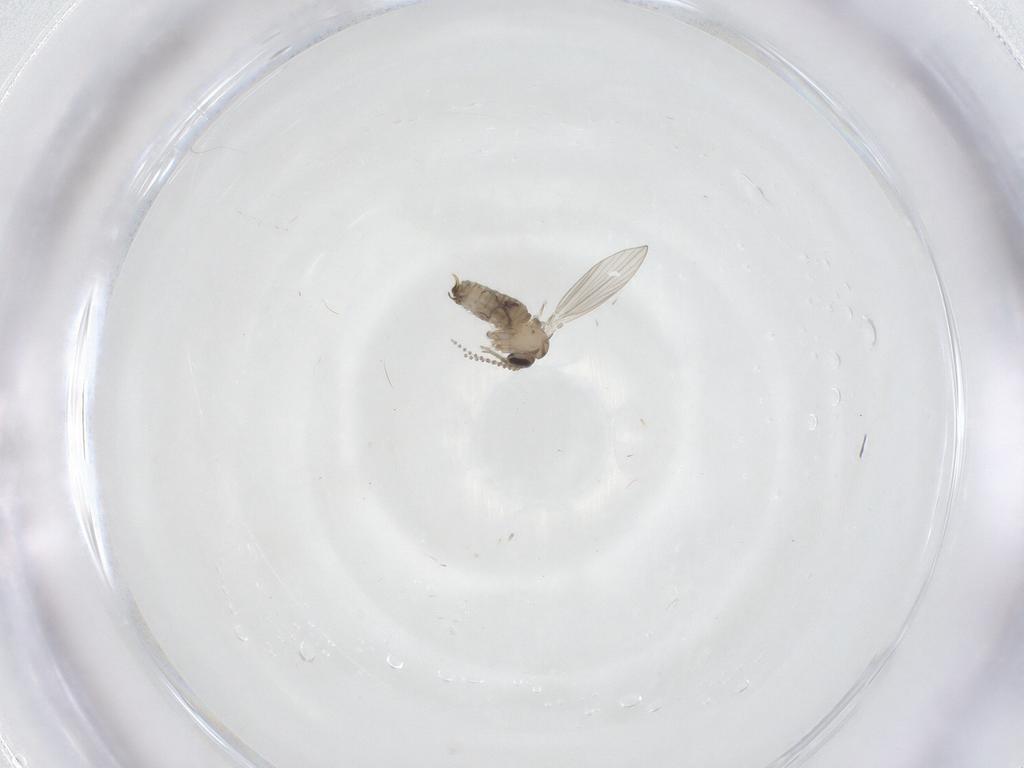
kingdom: Animalia
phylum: Arthropoda
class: Insecta
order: Diptera
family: Psychodidae
